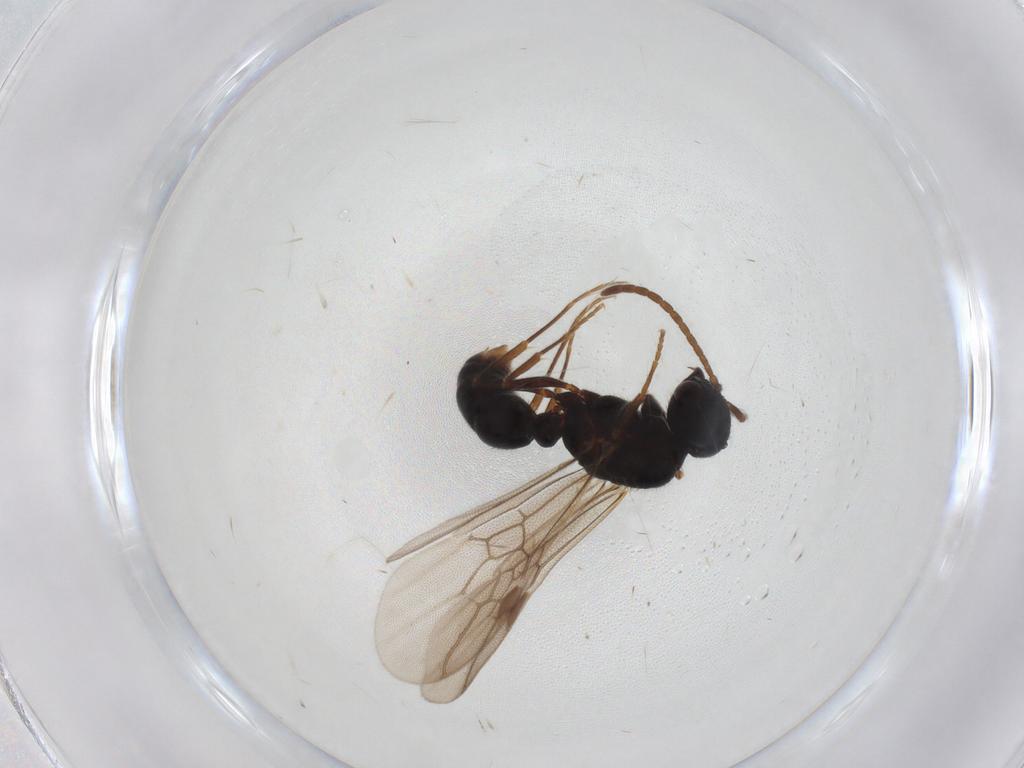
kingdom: Animalia
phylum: Arthropoda
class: Insecta
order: Hymenoptera
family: Formicidae
